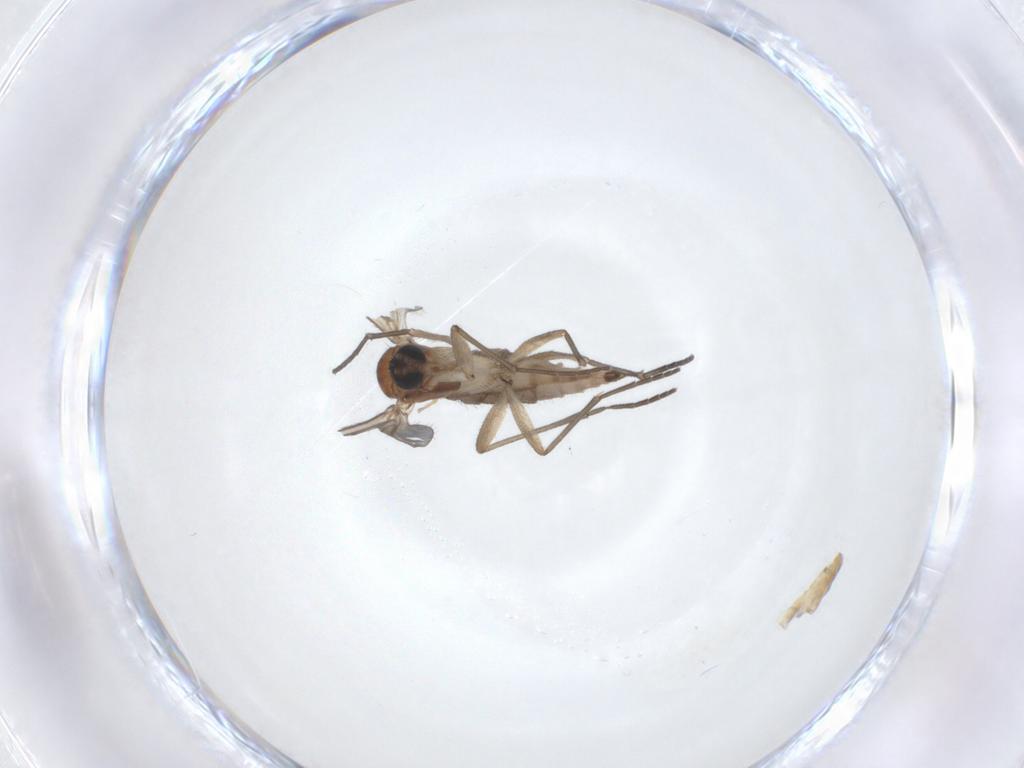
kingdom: Animalia
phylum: Arthropoda
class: Insecta
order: Diptera
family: Sciaridae
